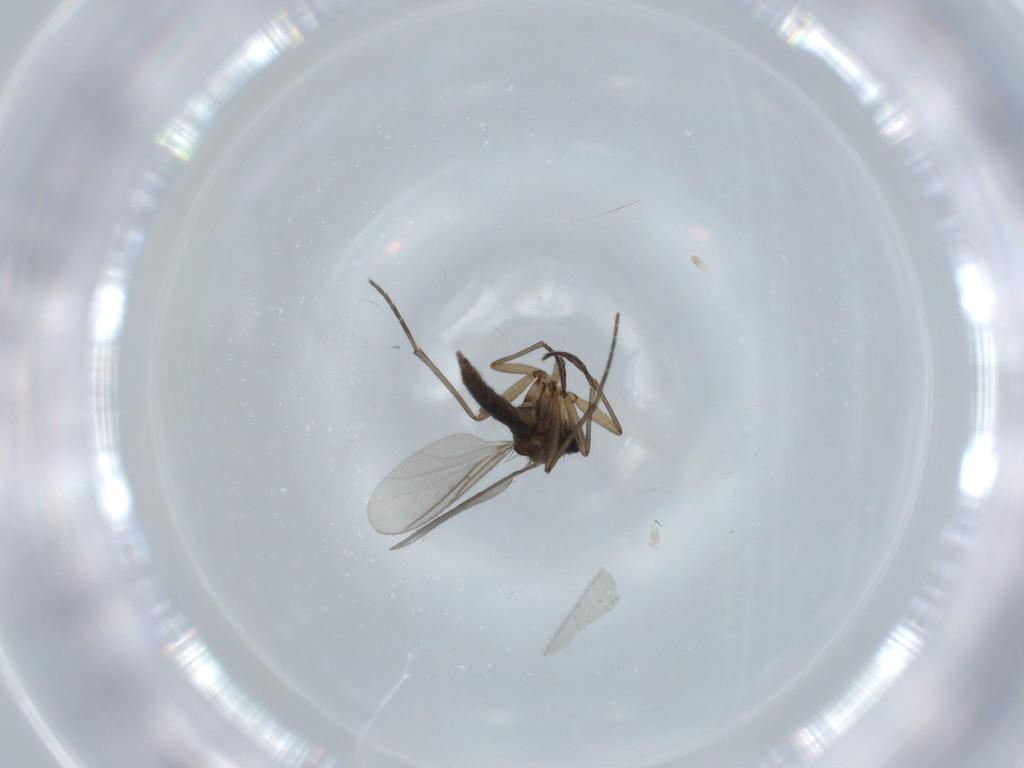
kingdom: Animalia
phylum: Arthropoda
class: Insecta
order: Diptera
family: Sciaridae
